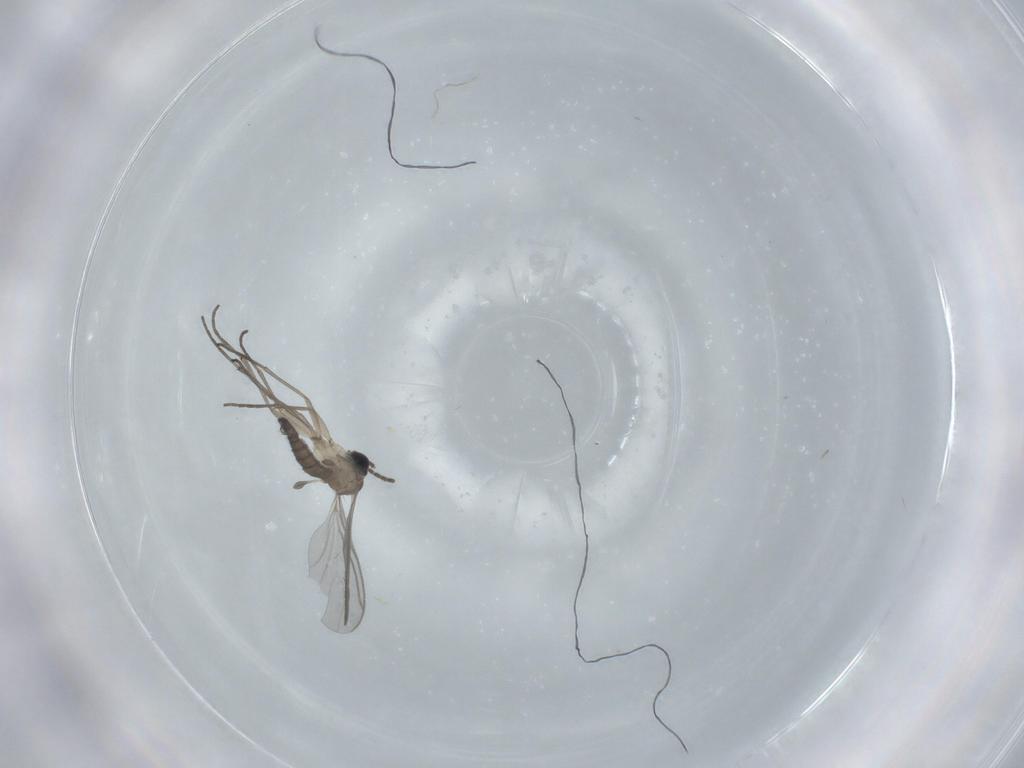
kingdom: Animalia
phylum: Arthropoda
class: Insecta
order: Diptera
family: Sciaridae
